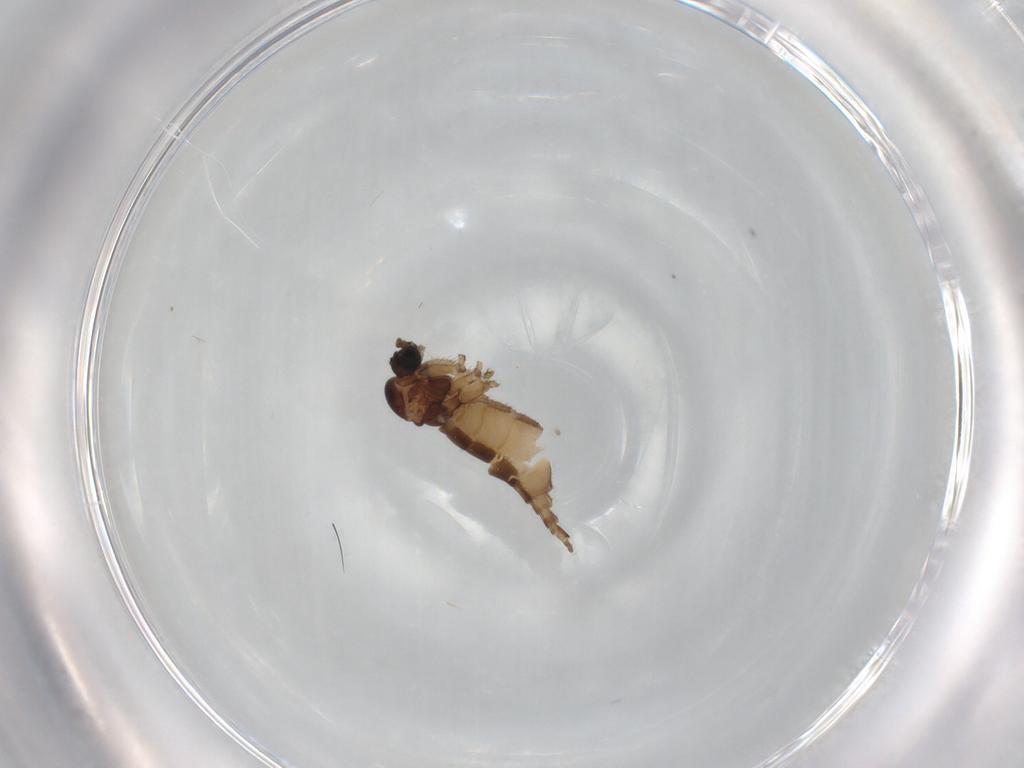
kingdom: Animalia
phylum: Arthropoda
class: Insecta
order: Diptera
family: Sciaridae
